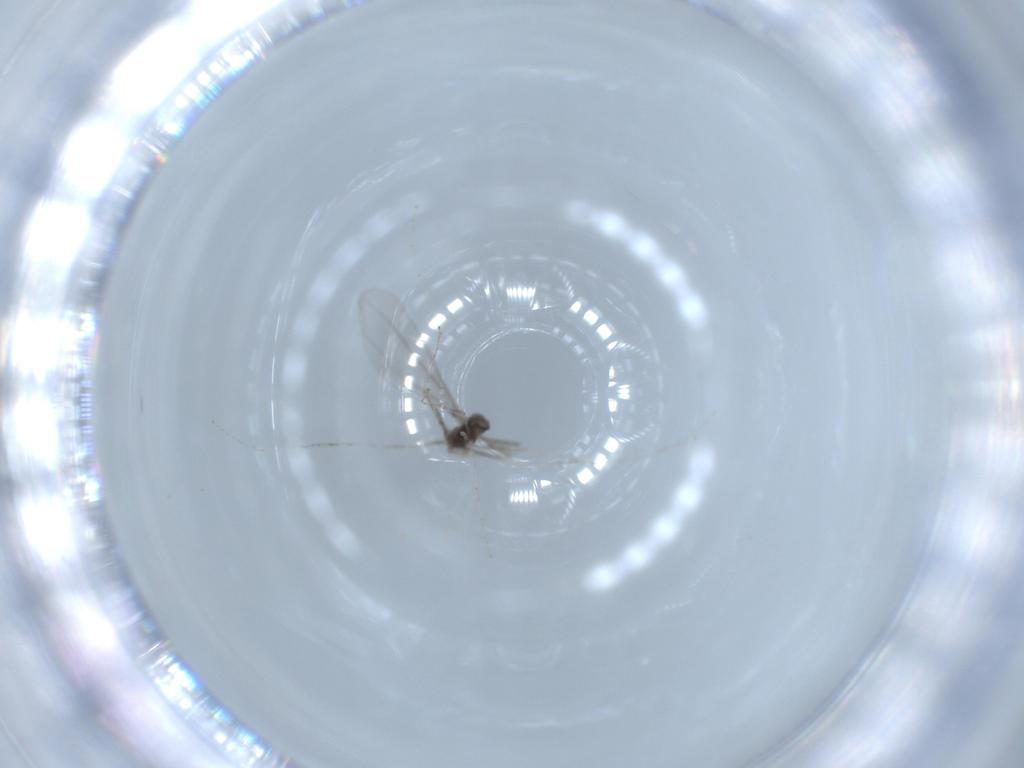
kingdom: Animalia
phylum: Arthropoda
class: Insecta
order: Diptera
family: Cecidomyiidae
